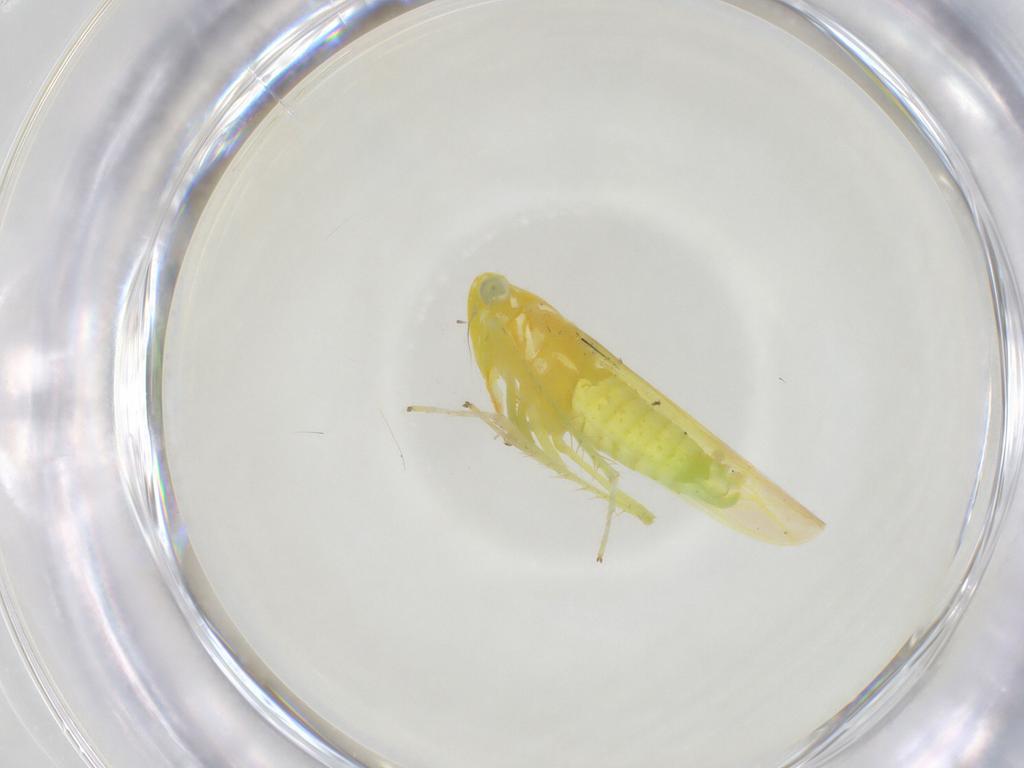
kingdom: Animalia
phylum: Arthropoda
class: Insecta
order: Hemiptera
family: Cicadellidae
